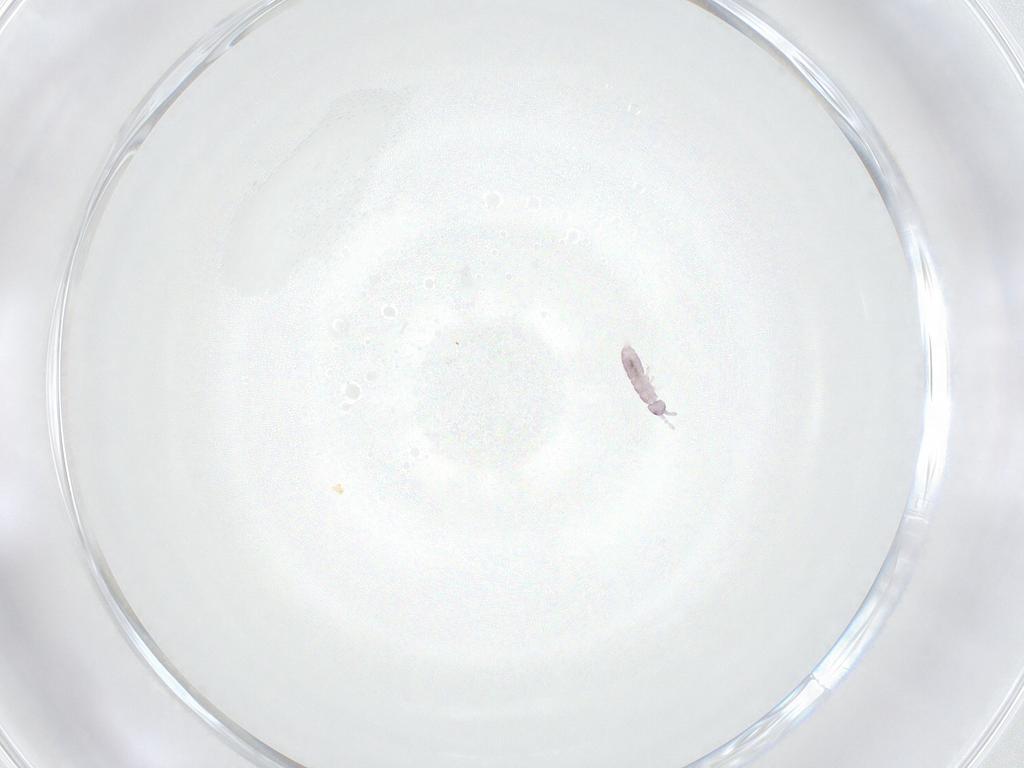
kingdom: Animalia
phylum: Arthropoda
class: Collembola
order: Entomobryomorpha
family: Isotomidae
